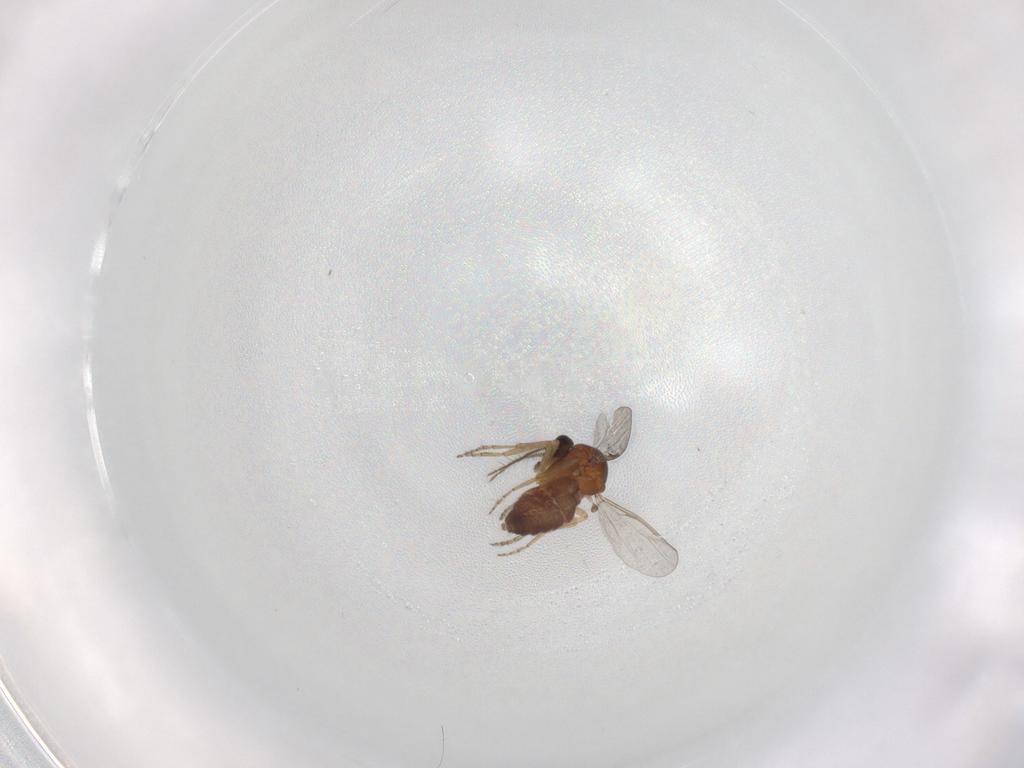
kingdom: Animalia
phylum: Arthropoda
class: Insecta
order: Diptera
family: Ceratopogonidae
